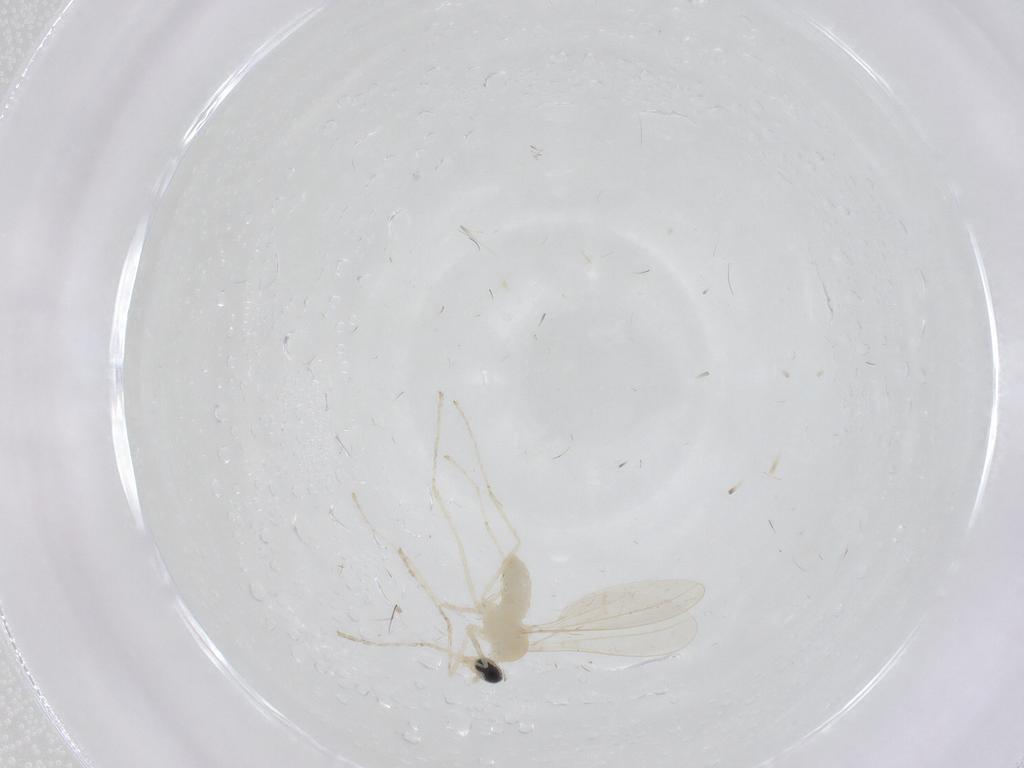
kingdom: Animalia
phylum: Arthropoda
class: Insecta
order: Diptera
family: Cecidomyiidae
